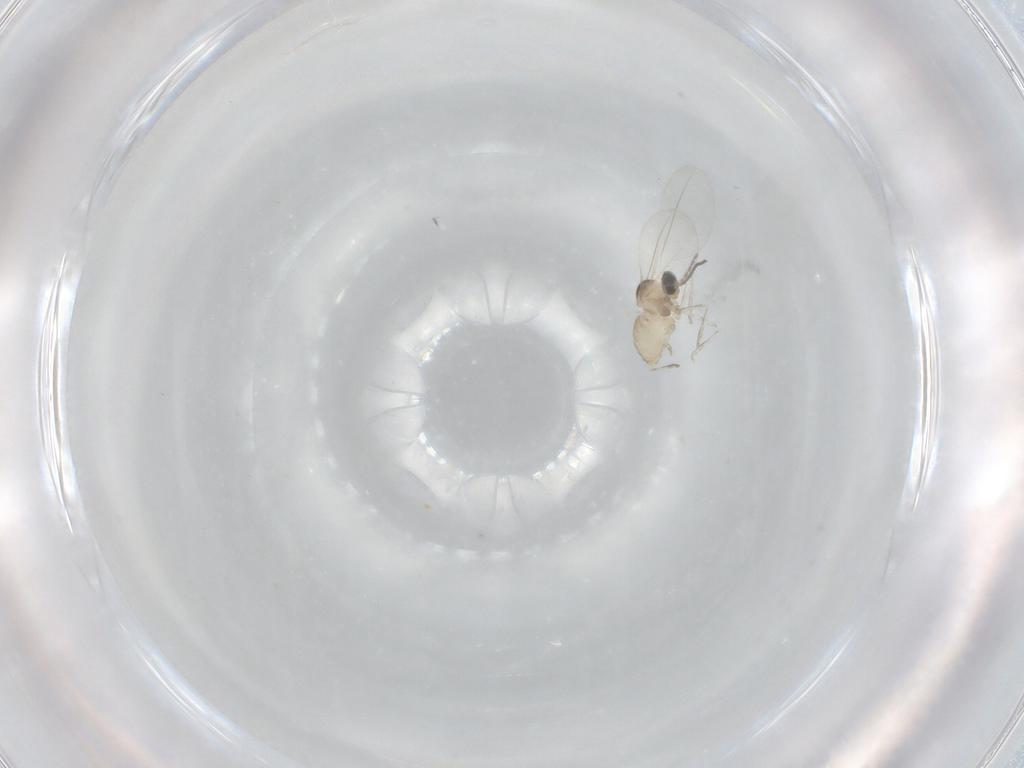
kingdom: Animalia
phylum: Arthropoda
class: Insecta
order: Diptera
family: Cecidomyiidae
